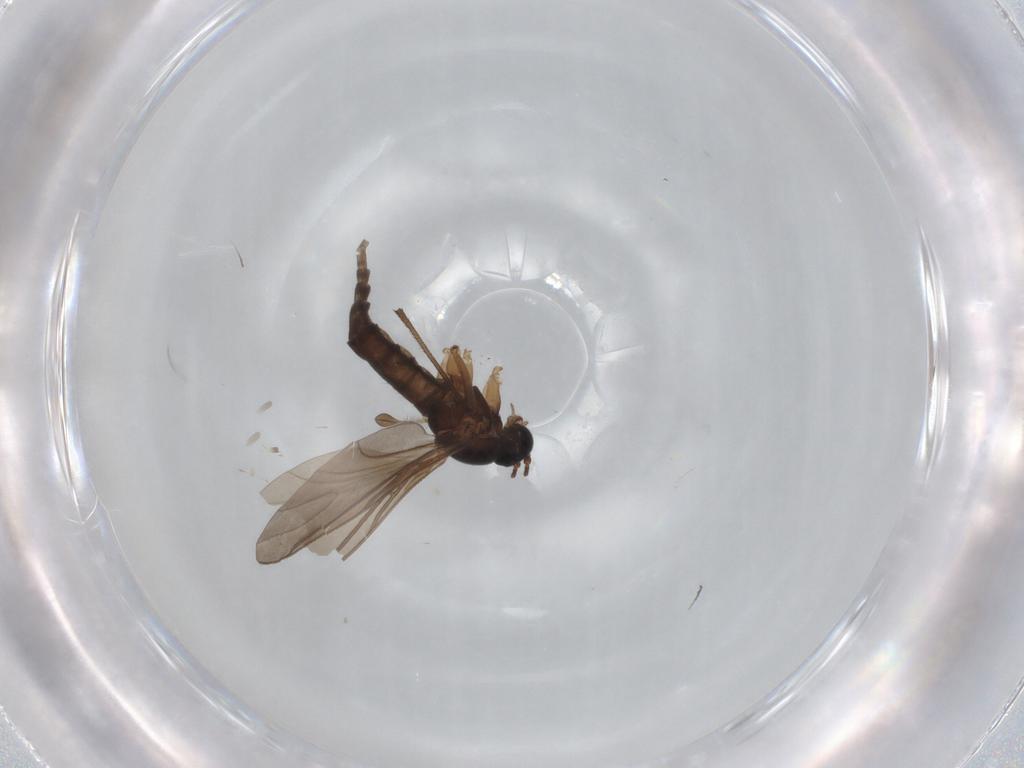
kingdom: Animalia
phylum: Arthropoda
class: Insecta
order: Diptera
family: Sciaridae
